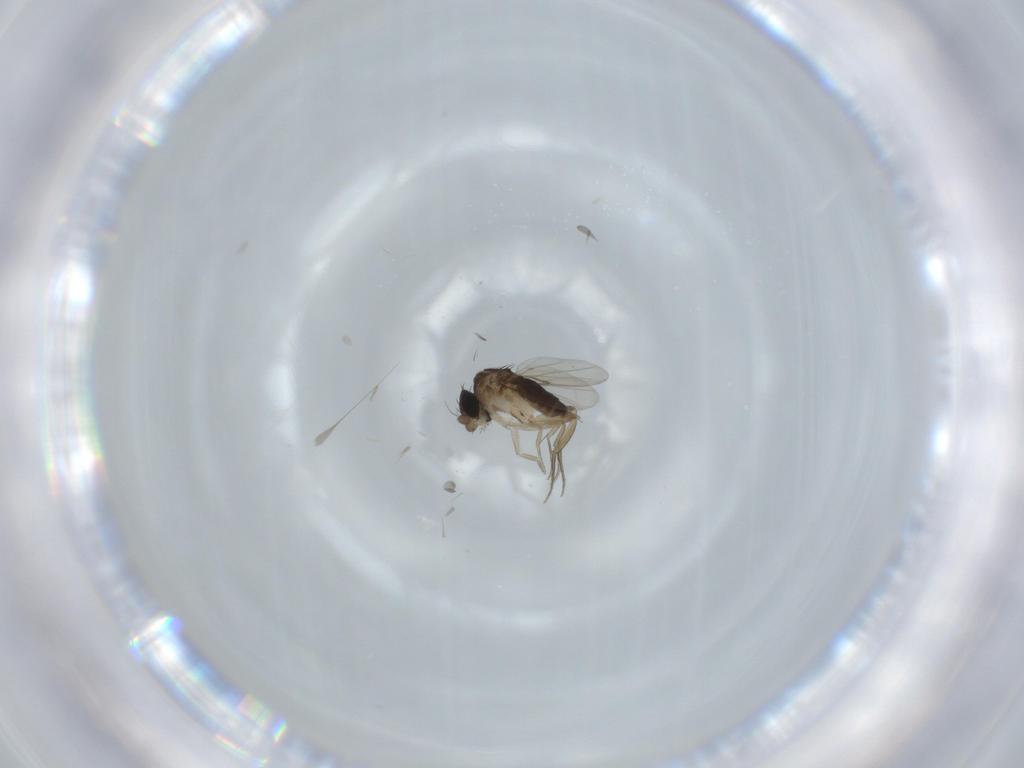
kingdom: Animalia
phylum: Arthropoda
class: Insecta
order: Diptera
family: Phoridae
